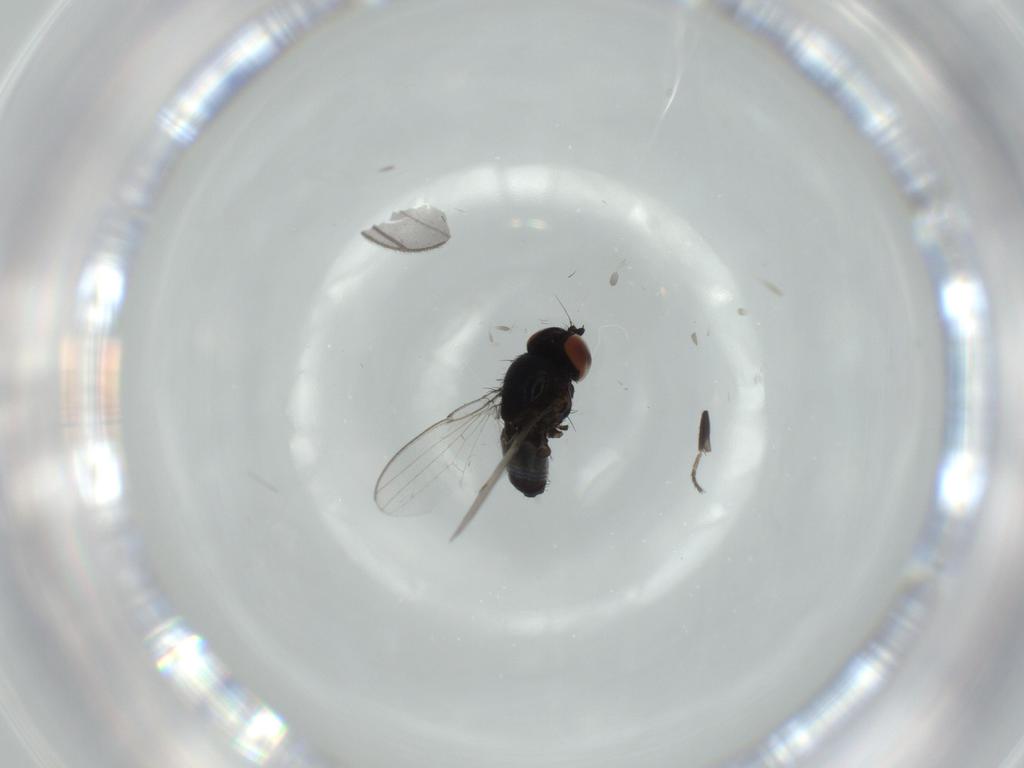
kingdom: Animalia
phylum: Arthropoda
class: Insecta
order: Diptera
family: Milichiidae
